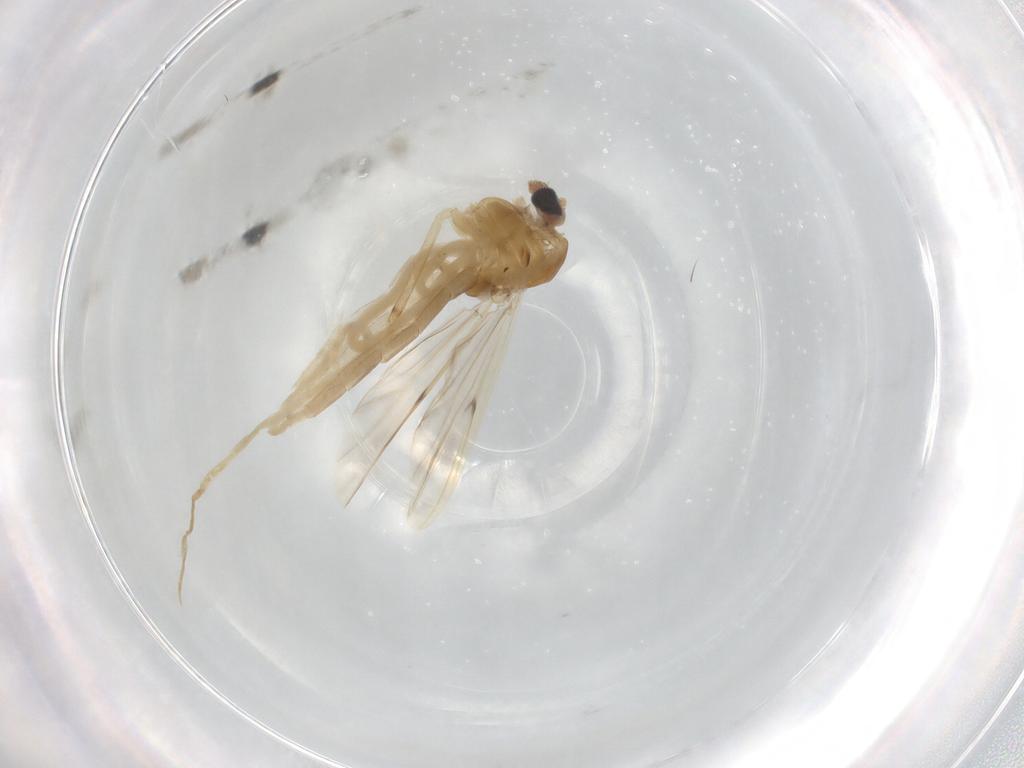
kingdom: Animalia
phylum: Arthropoda
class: Insecta
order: Diptera
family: Chironomidae
